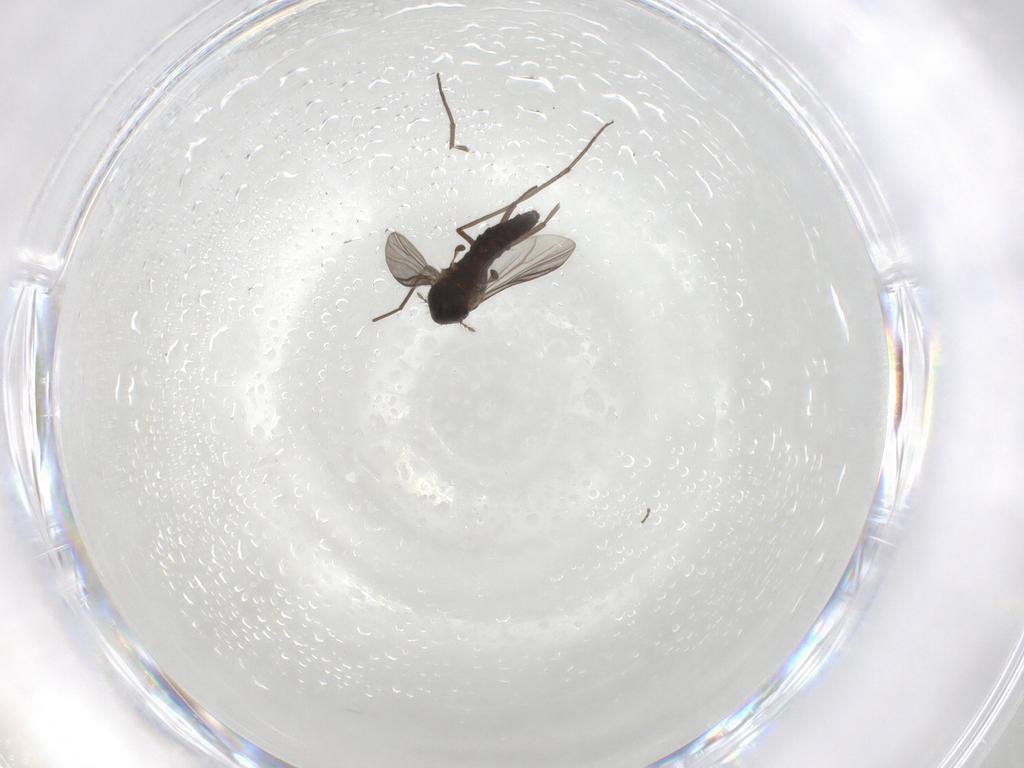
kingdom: Animalia
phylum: Arthropoda
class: Insecta
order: Diptera
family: Chironomidae
